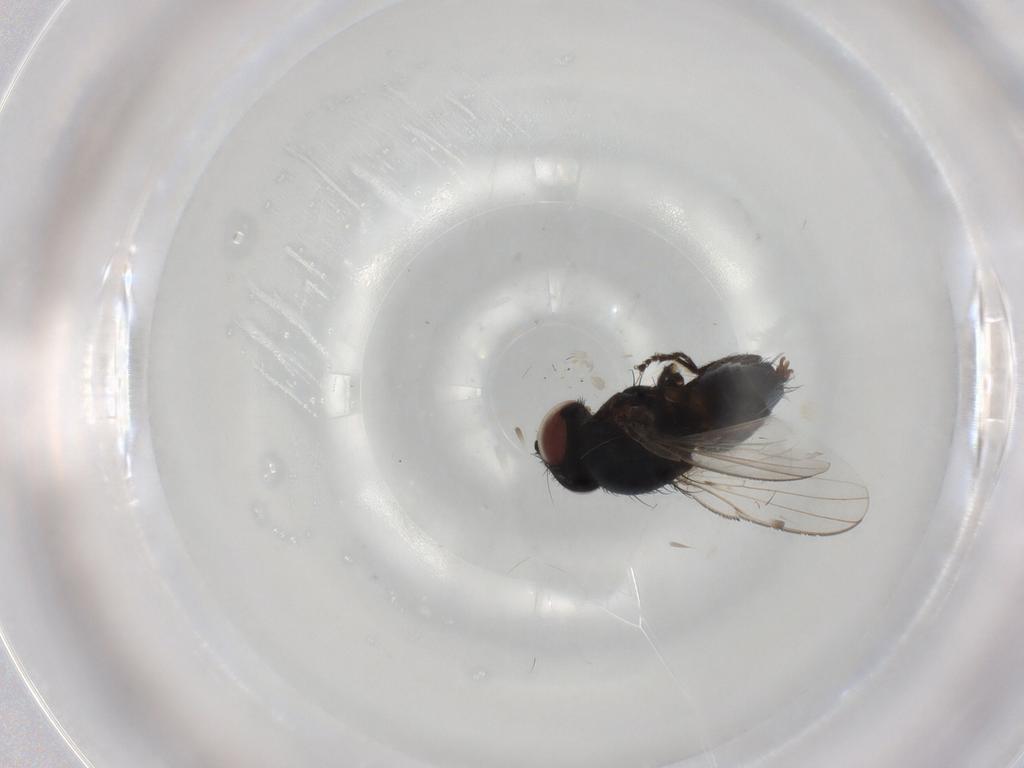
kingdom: Animalia
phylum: Arthropoda
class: Insecta
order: Diptera
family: Milichiidae
